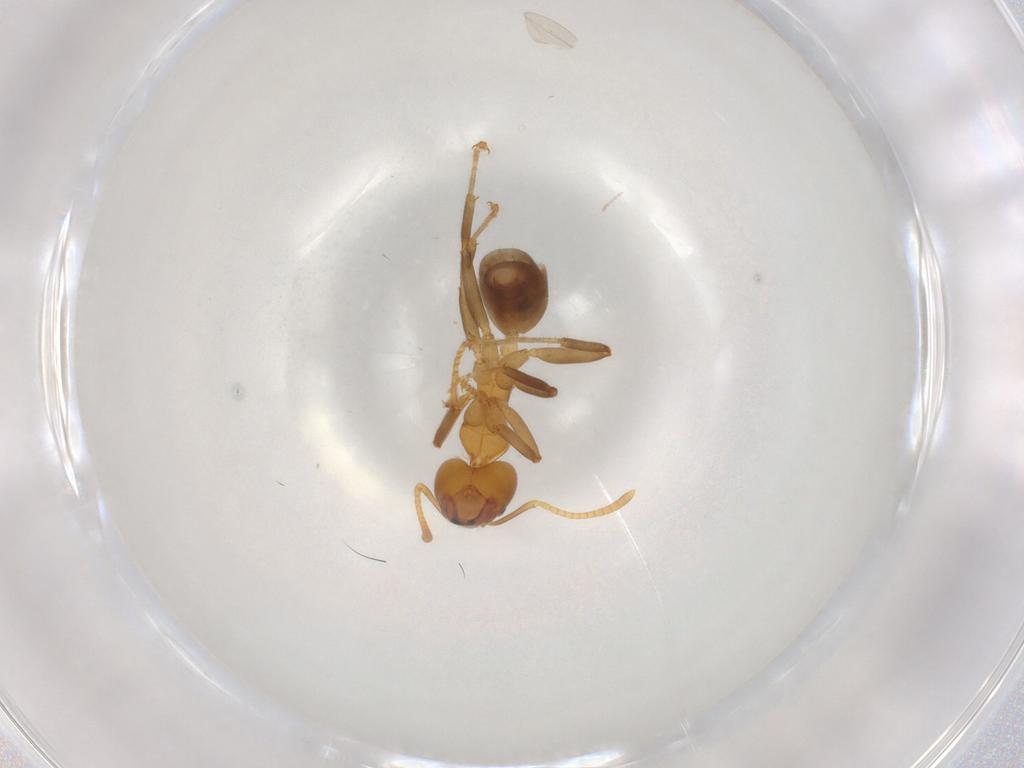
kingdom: Animalia
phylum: Arthropoda
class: Insecta
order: Hymenoptera
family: Formicidae
